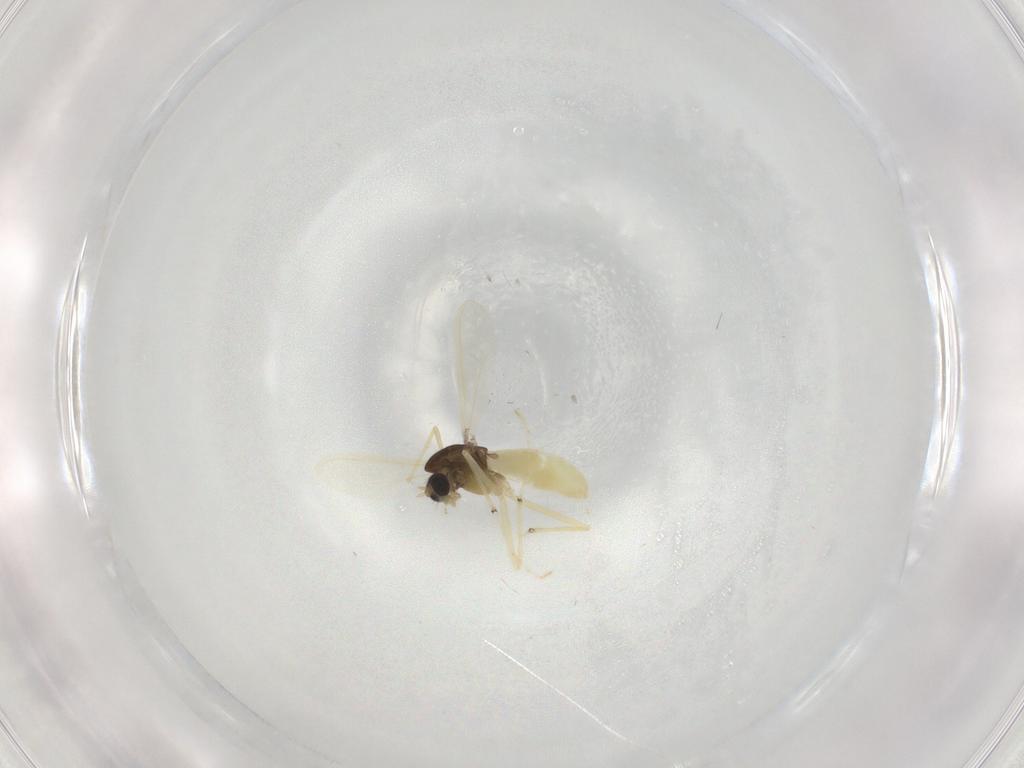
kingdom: Animalia
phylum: Arthropoda
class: Insecta
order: Diptera
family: Chironomidae
